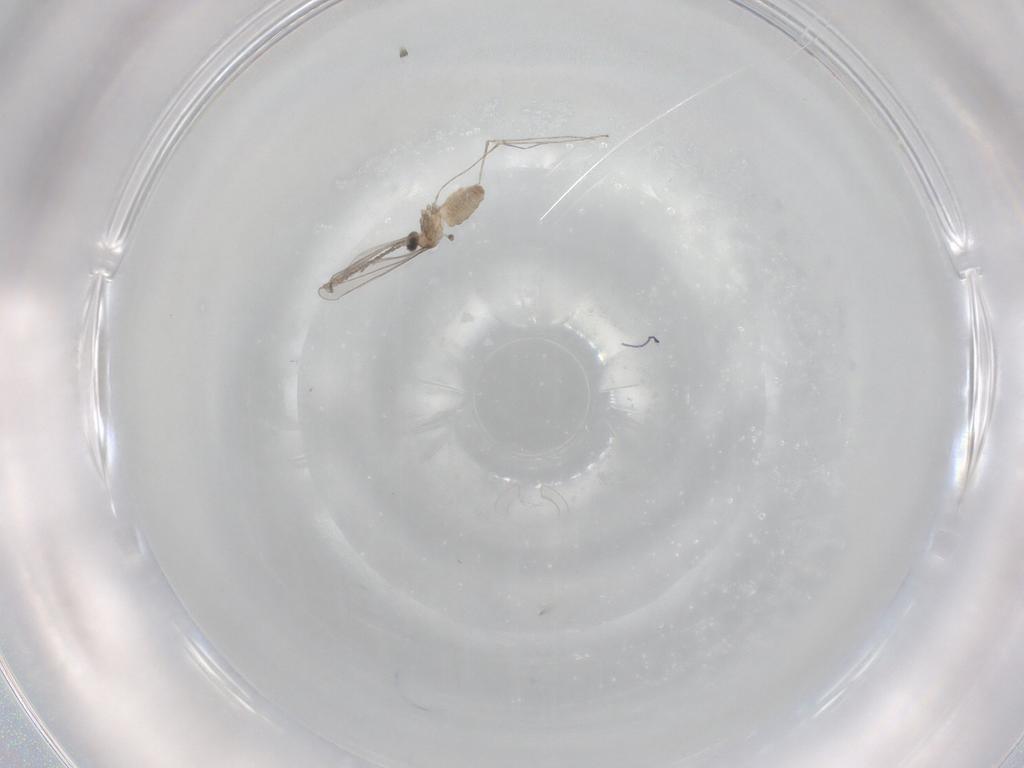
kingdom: Animalia
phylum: Arthropoda
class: Insecta
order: Diptera
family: Cecidomyiidae
